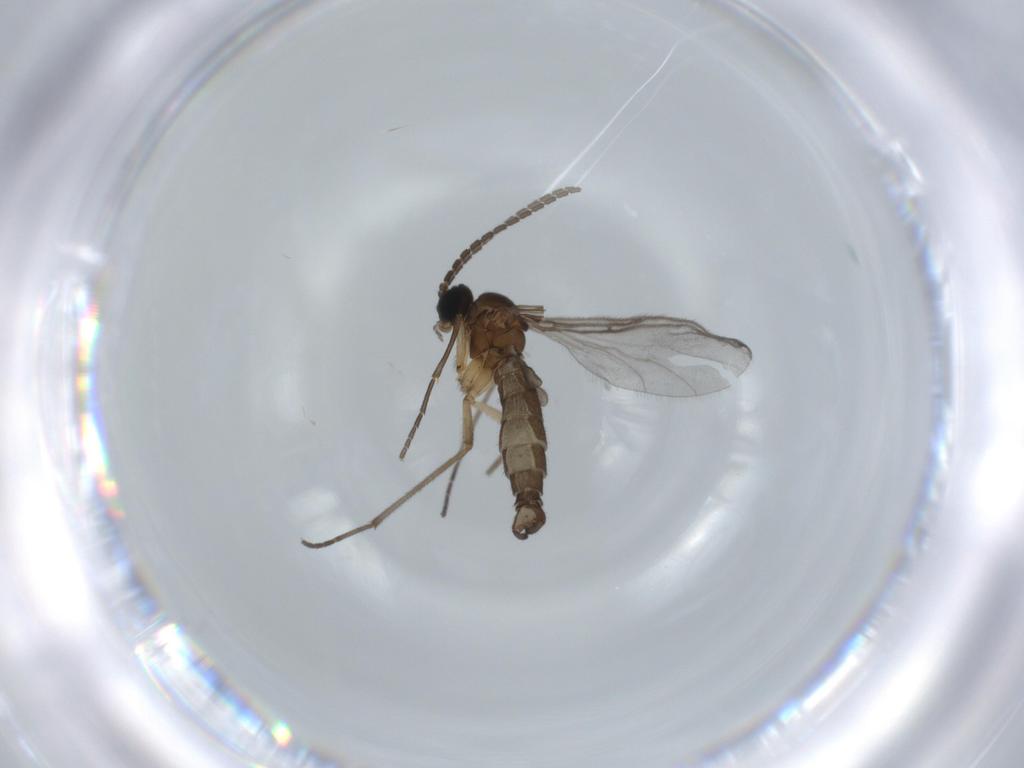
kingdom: Animalia
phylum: Arthropoda
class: Insecta
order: Diptera
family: Sciaridae
